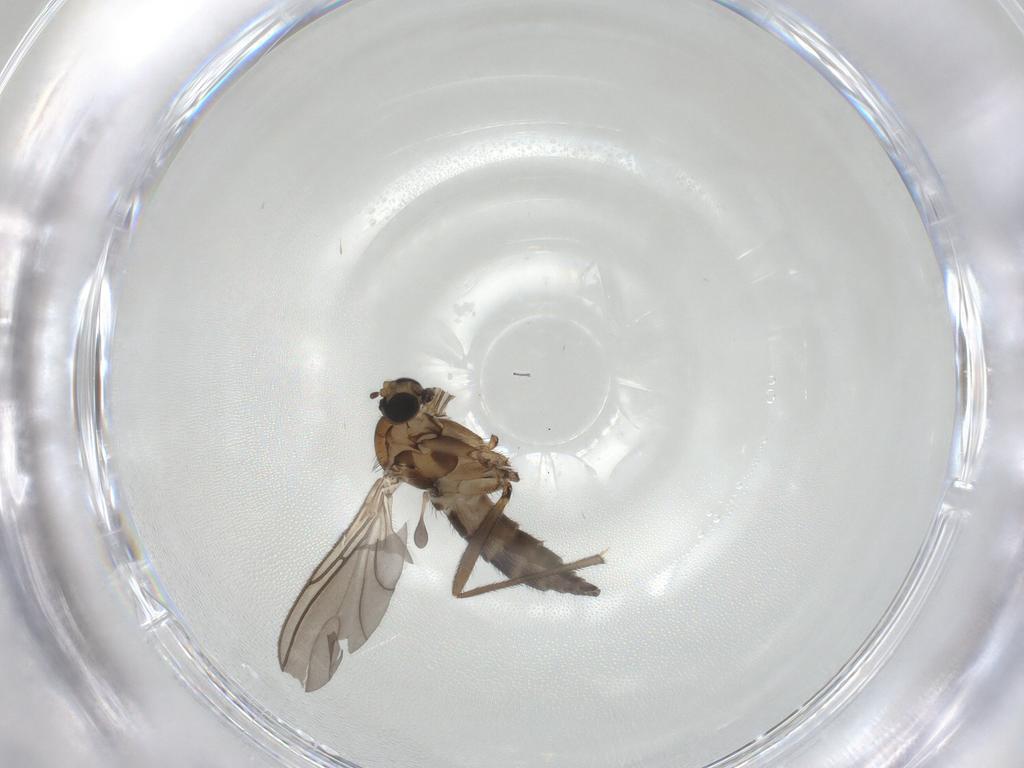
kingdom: Animalia
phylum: Arthropoda
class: Insecta
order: Diptera
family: Sciaridae
